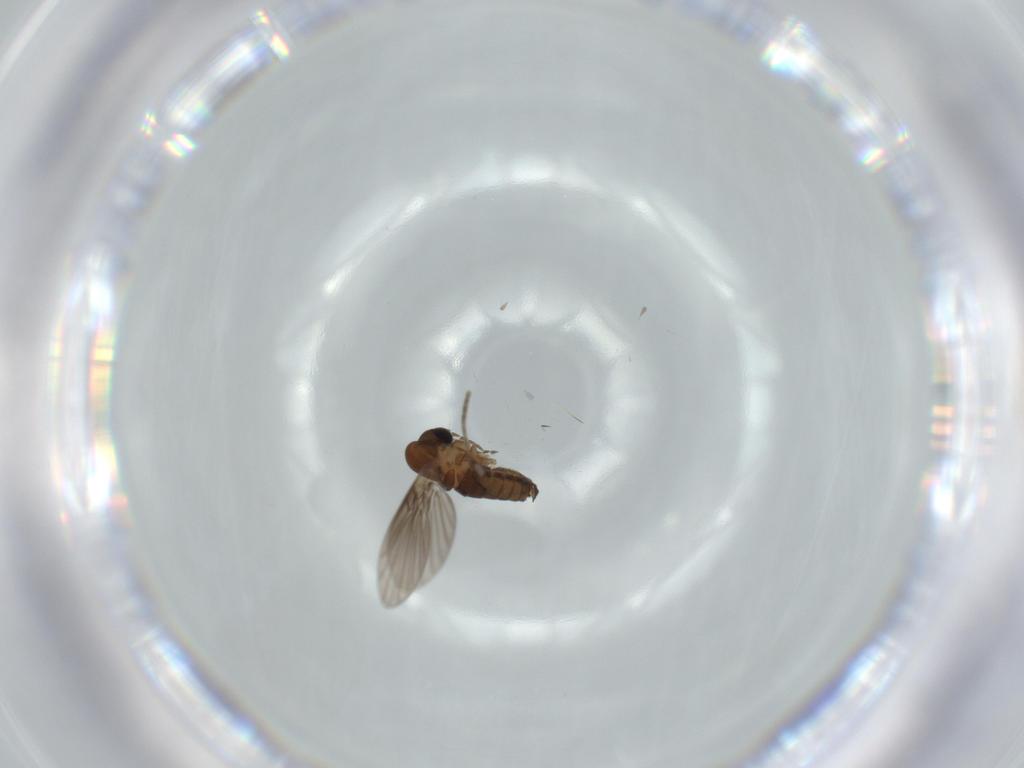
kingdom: Animalia
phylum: Arthropoda
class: Insecta
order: Diptera
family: Psychodidae
